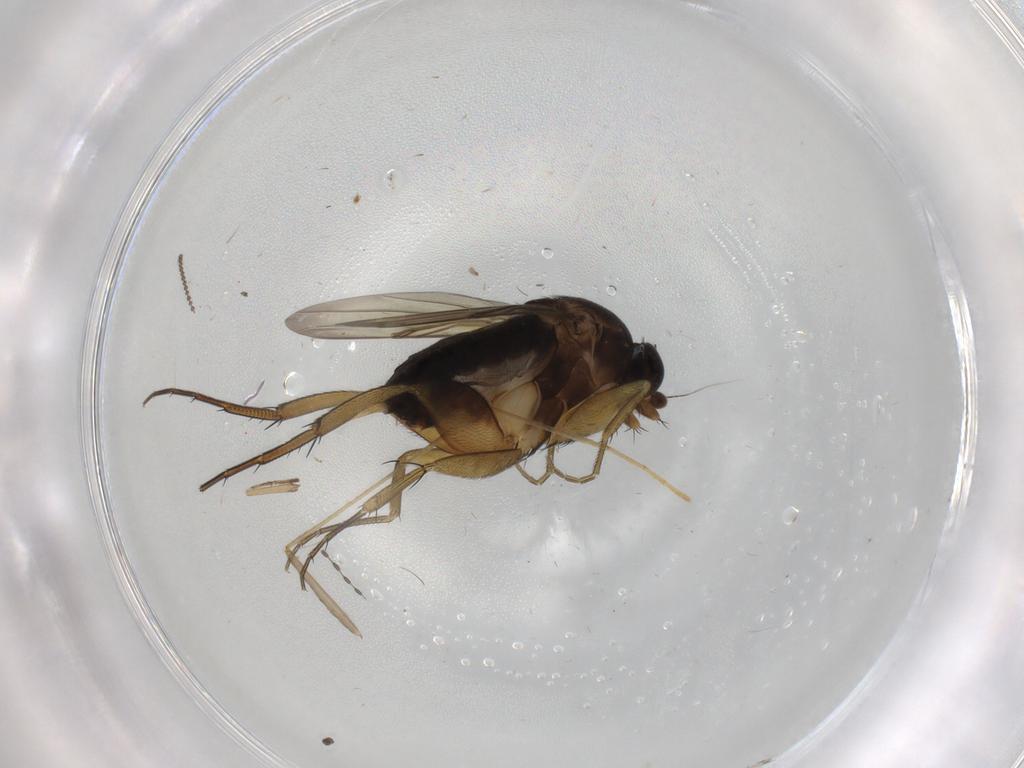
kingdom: Animalia
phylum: Arthropoda
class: Insecta
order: Diptera
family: Phoridae
